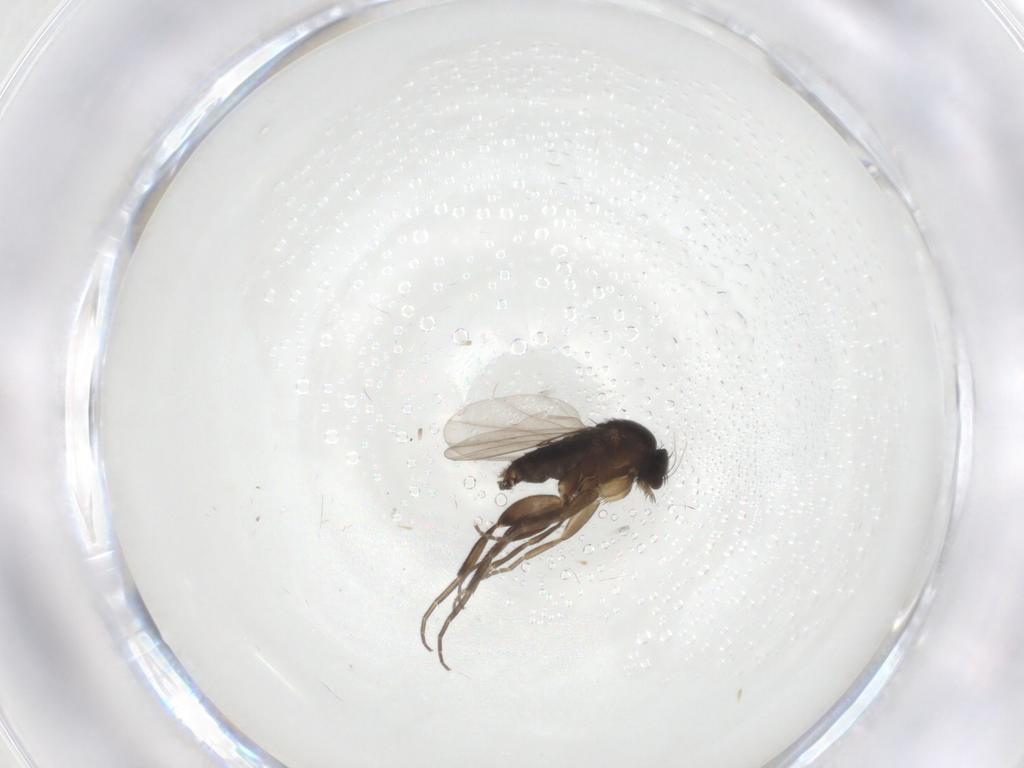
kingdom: Animalia
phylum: Arthropoda
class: Insecta
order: Diptera
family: Phoridae
